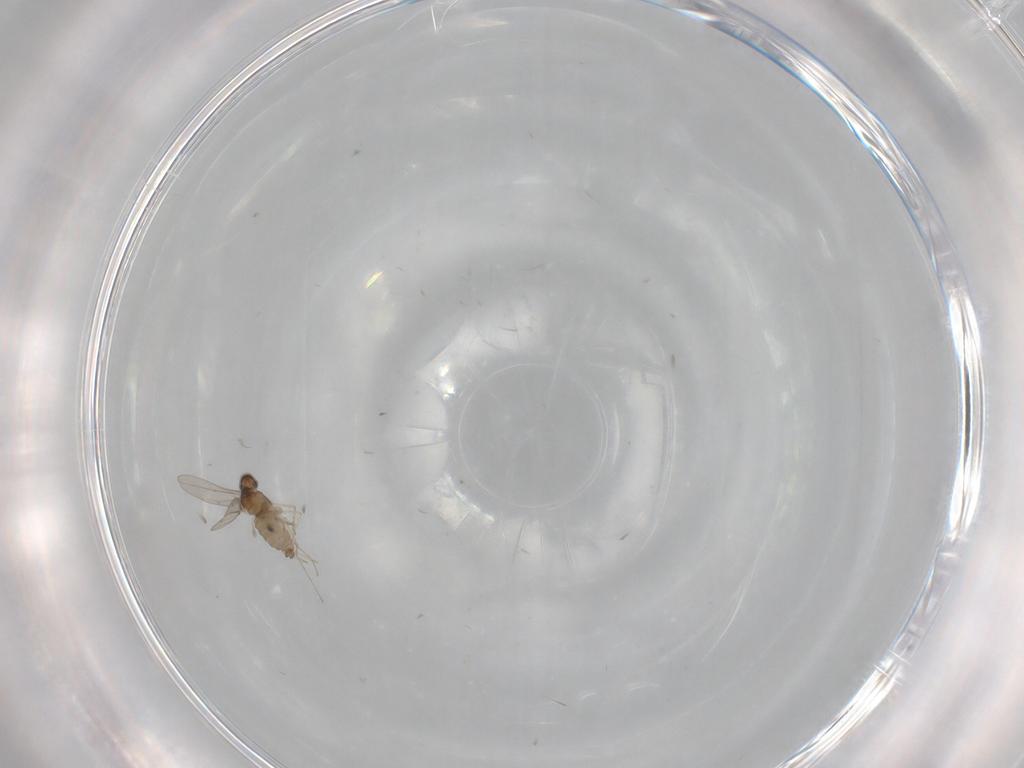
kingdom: Animalia
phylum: Arthropoda
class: Insecta
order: Diptera
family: Cecidomyiidae
